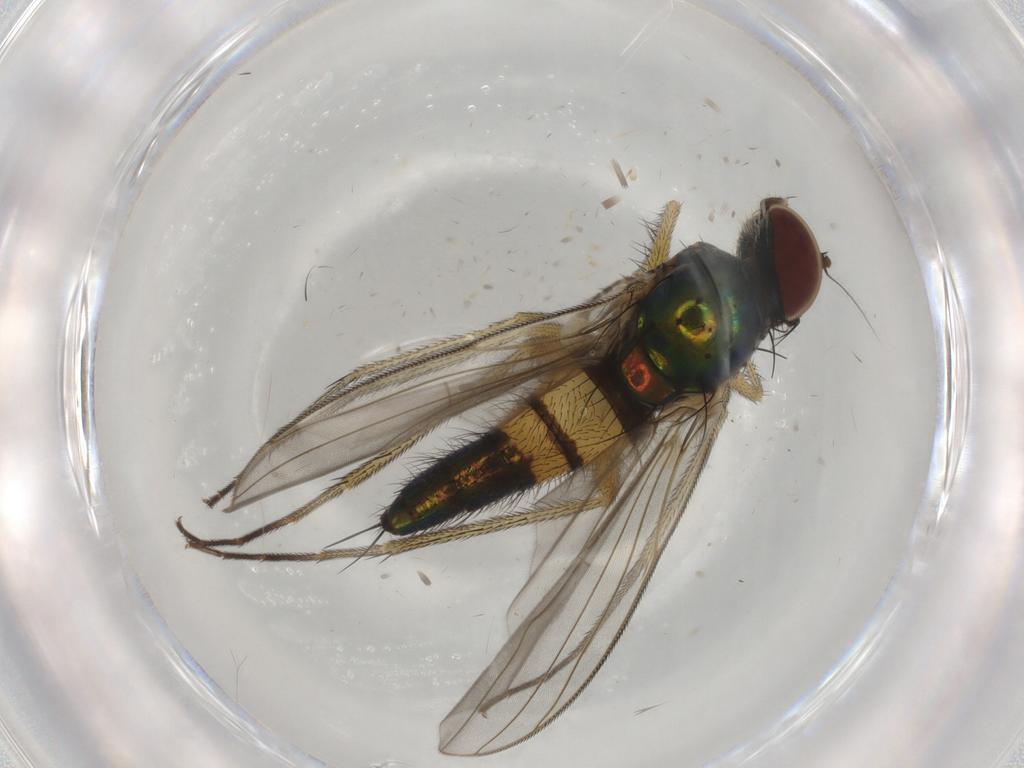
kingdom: Animalia
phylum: Arthropoda
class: Insecta
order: Diptera
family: Dolichopodidae
